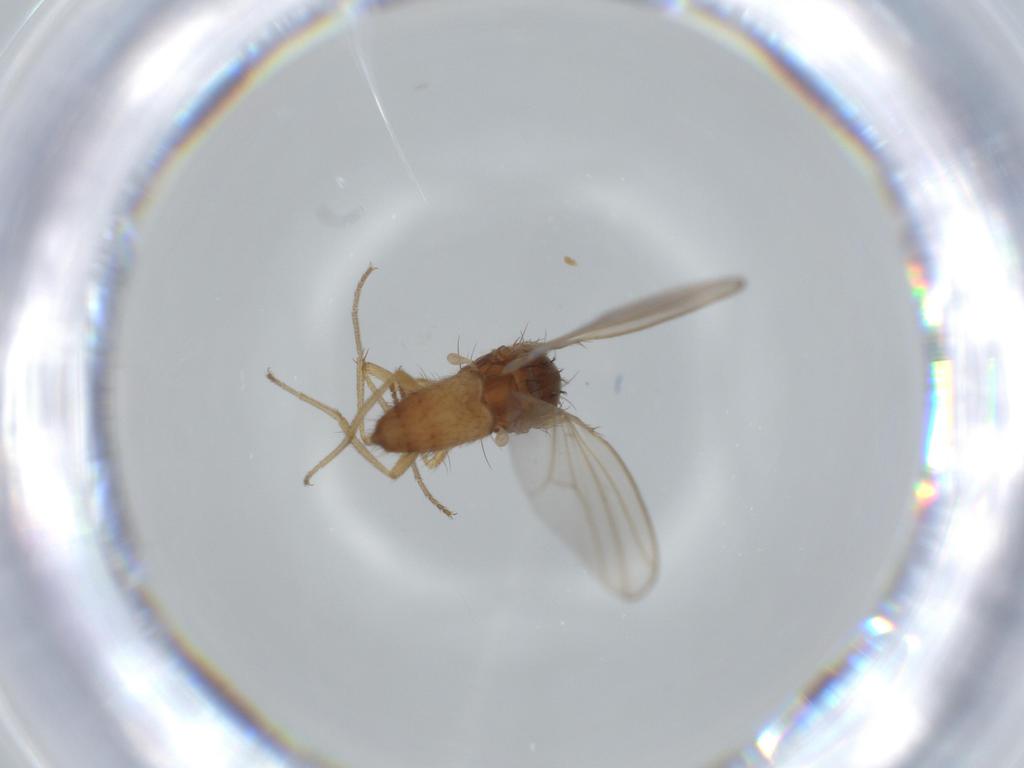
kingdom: Animalia
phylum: Arthropoda
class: Insecta
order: Diptera
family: Drosophilidae
